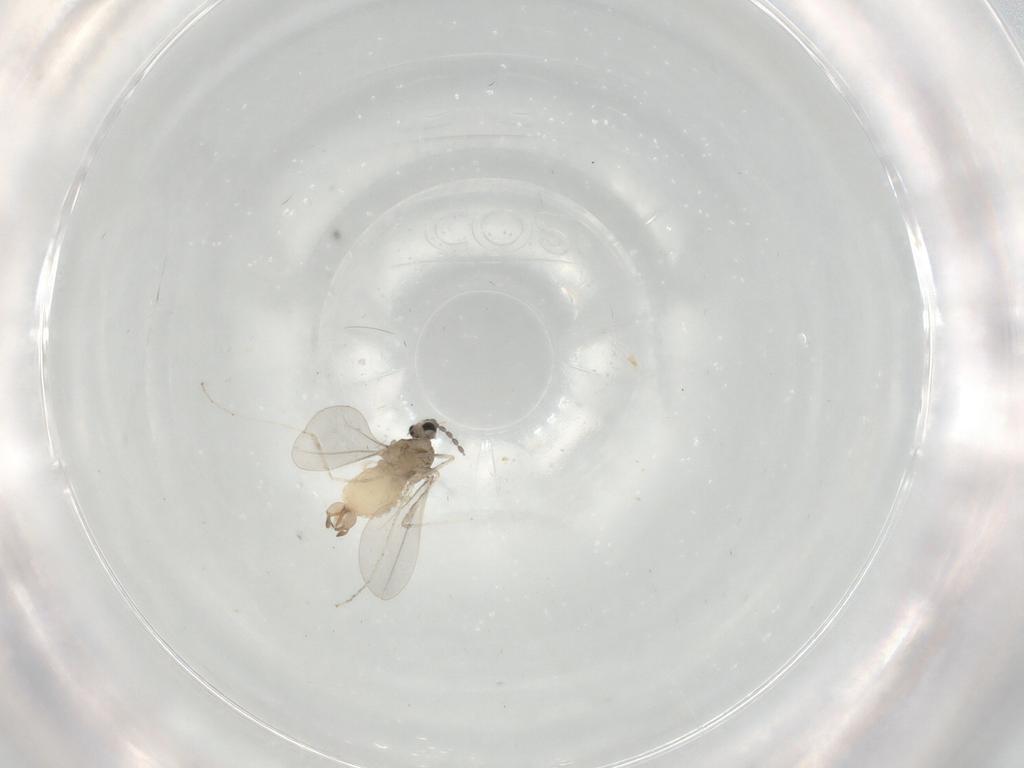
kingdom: Animalia
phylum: Arthropoda
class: Insecta
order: Diptera
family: Cecidomyiidae
